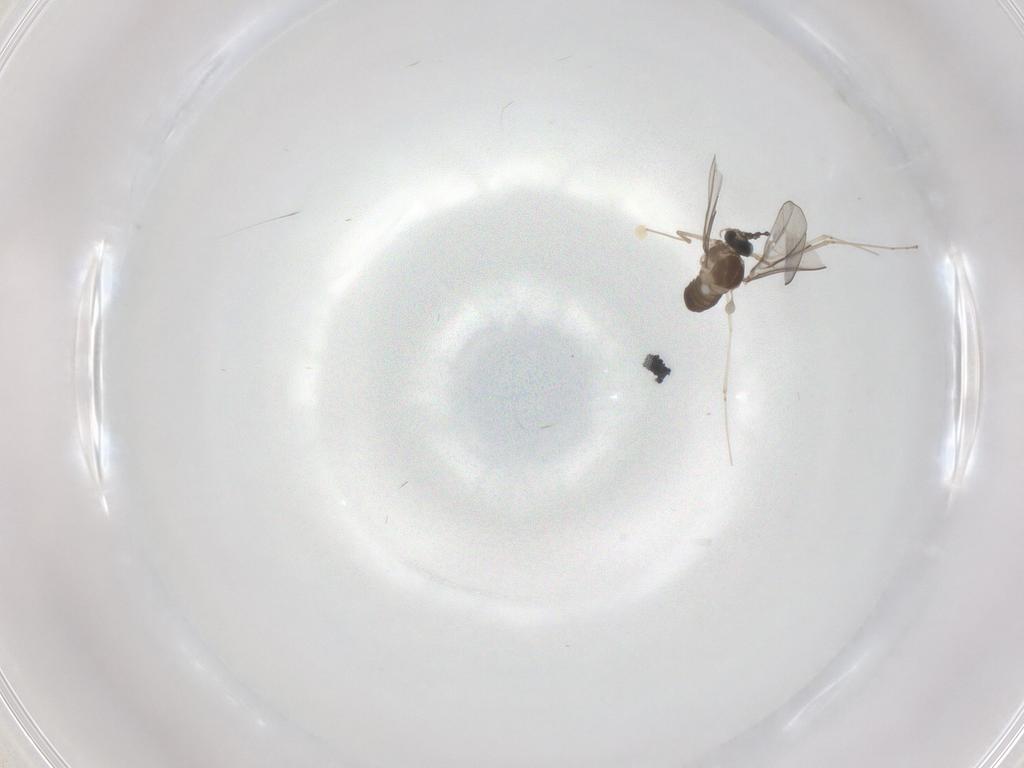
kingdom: Animalia
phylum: Arthropoda
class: Insecta
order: Diptera
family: Cecidomyiidae
